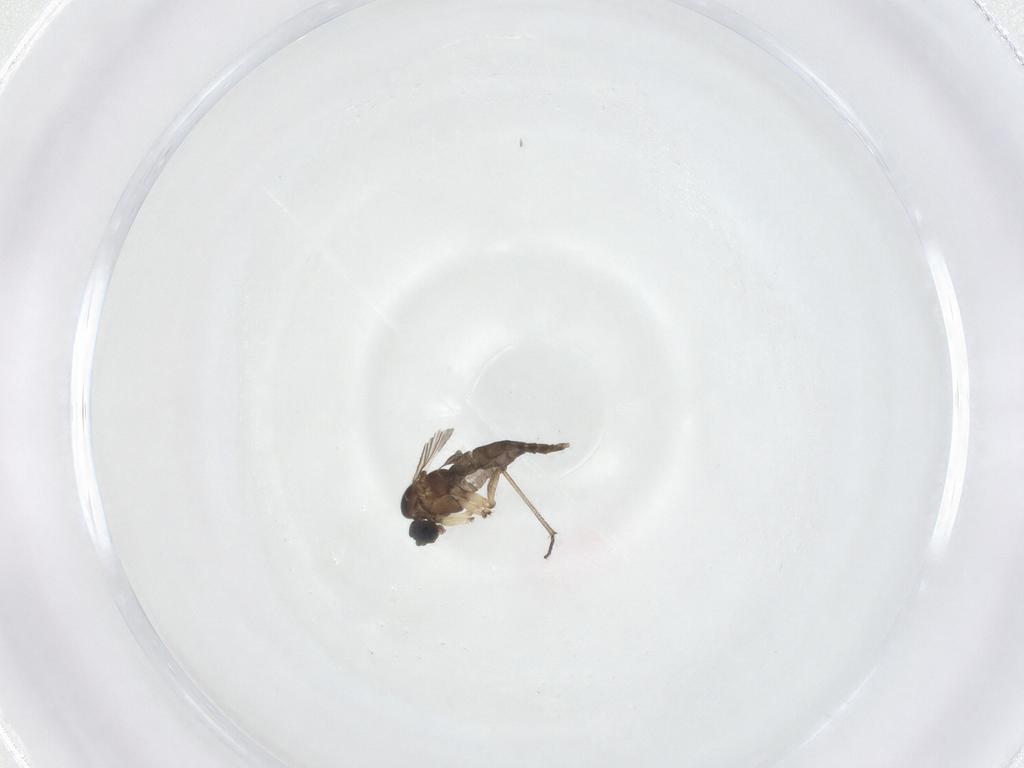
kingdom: Animalia
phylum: Arthropoda
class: Insecta
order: Diptera
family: Sciaridae
